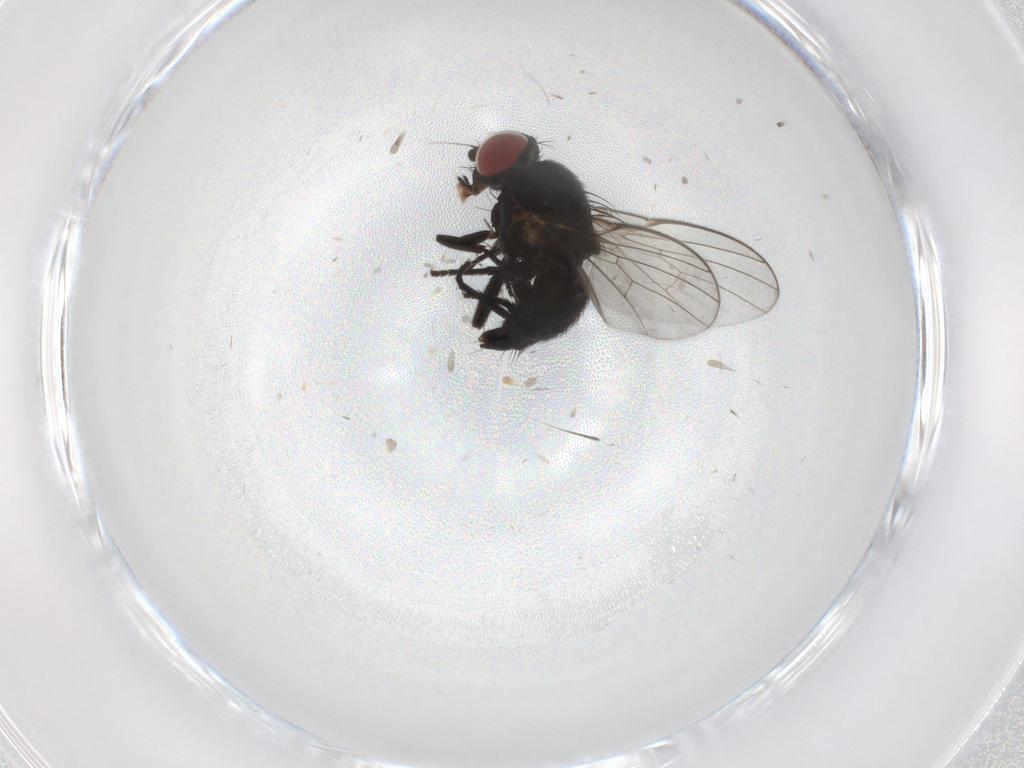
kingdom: Animalia
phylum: Arthropoda
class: Insecta
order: Diptera
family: Cecidomyiidae
